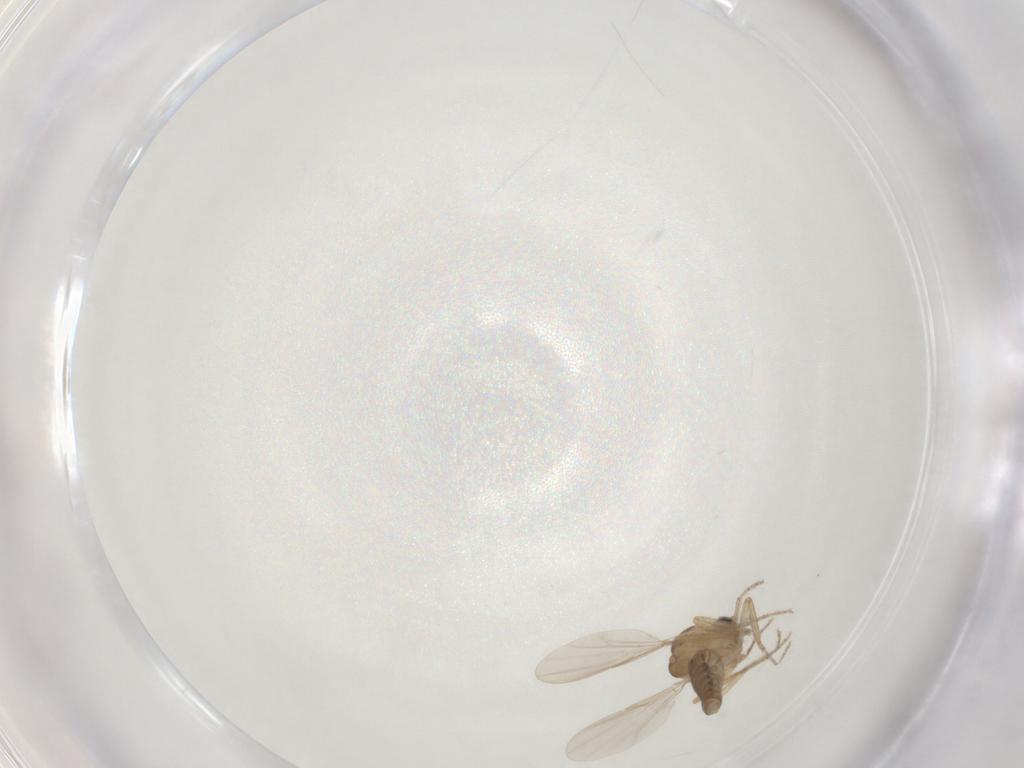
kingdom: Animalia
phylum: Arthropoda
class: Insecta
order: Diptera
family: Ceratopogonidae
